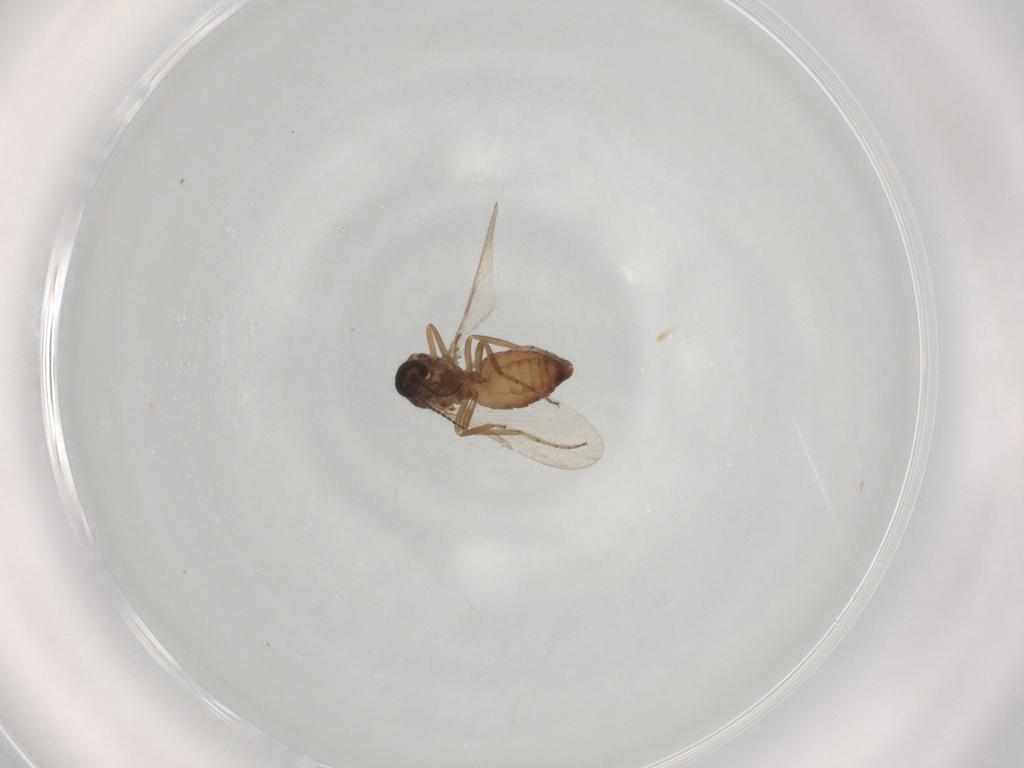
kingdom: Animalia
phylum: Arthropoda
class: Insecta
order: Diptera
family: Ceratopogonidae
